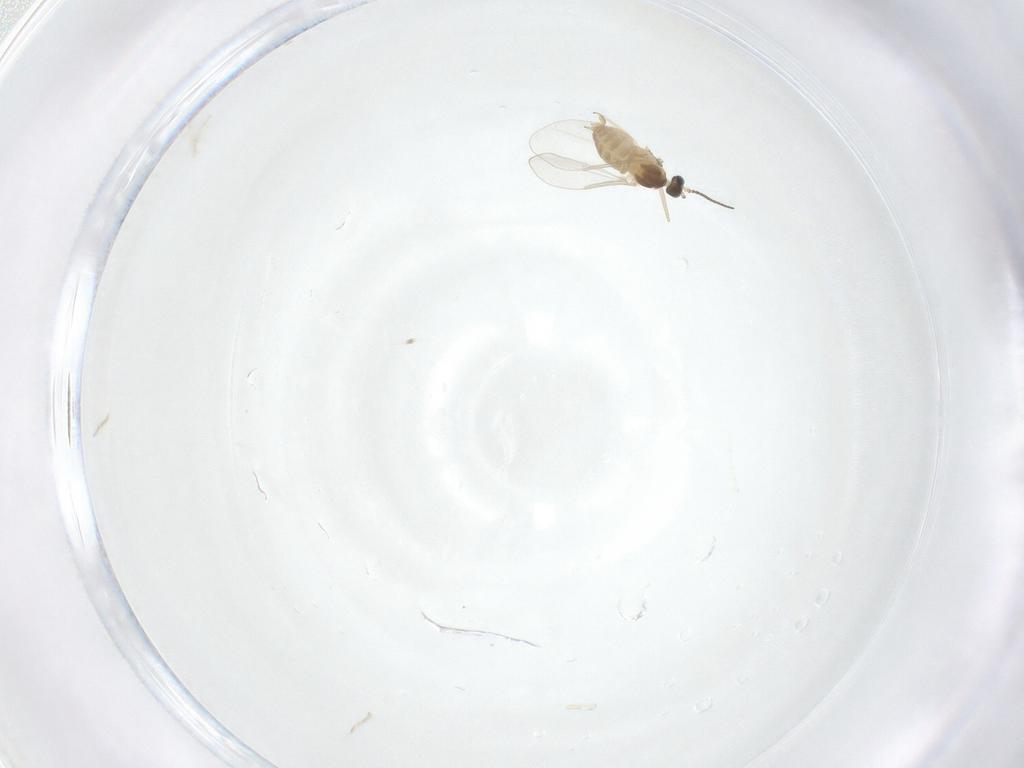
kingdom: Animalia
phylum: Arthropoda
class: Insecta
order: Diptera
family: Cecidomyiidae
